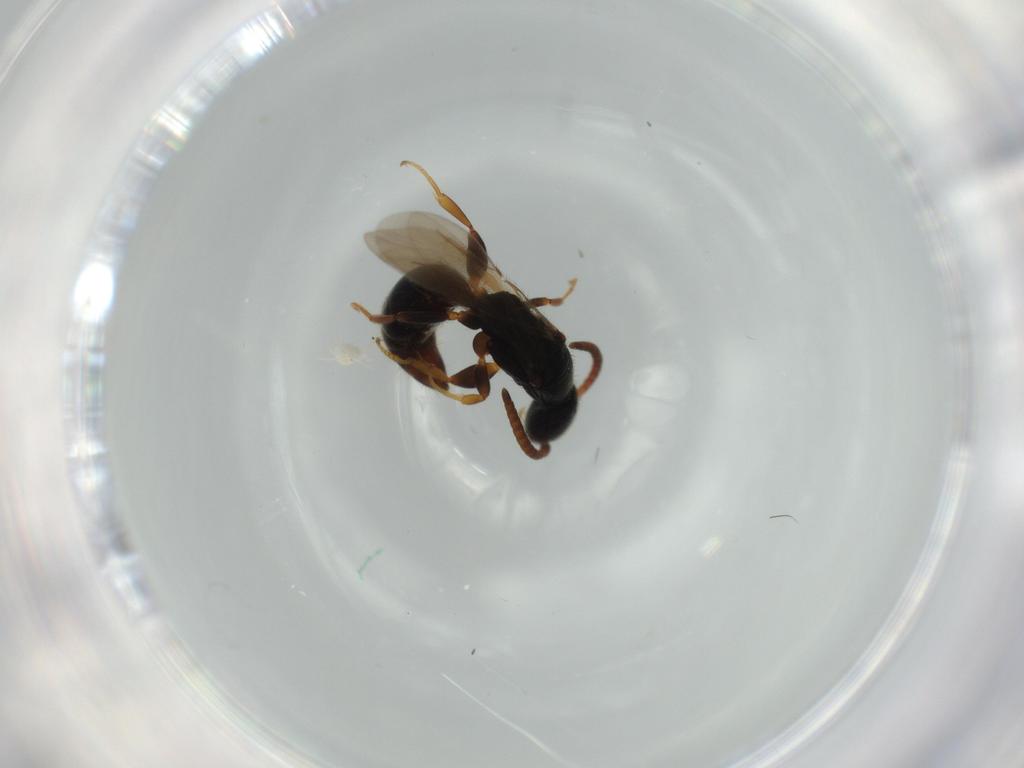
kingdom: Animalia
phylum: Arthropoda
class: Insecta
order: Hymenoptera
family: Bethylidae
